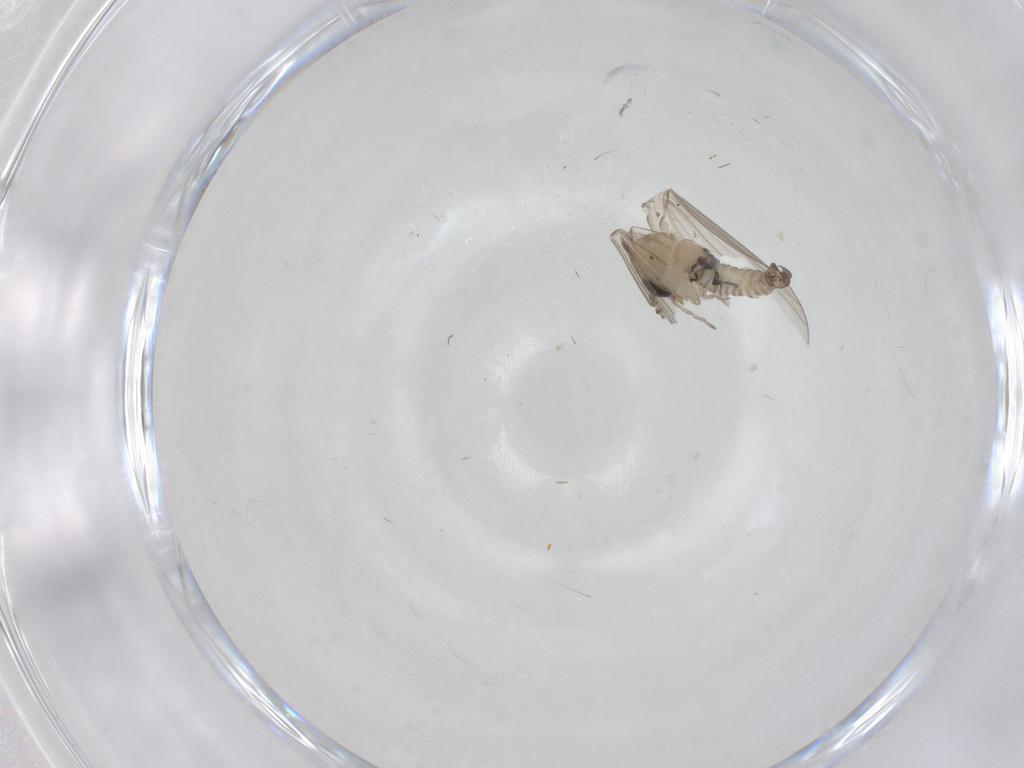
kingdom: Animalia
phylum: Arthropoda
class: Insecta
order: Diptera
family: Psychodidae
